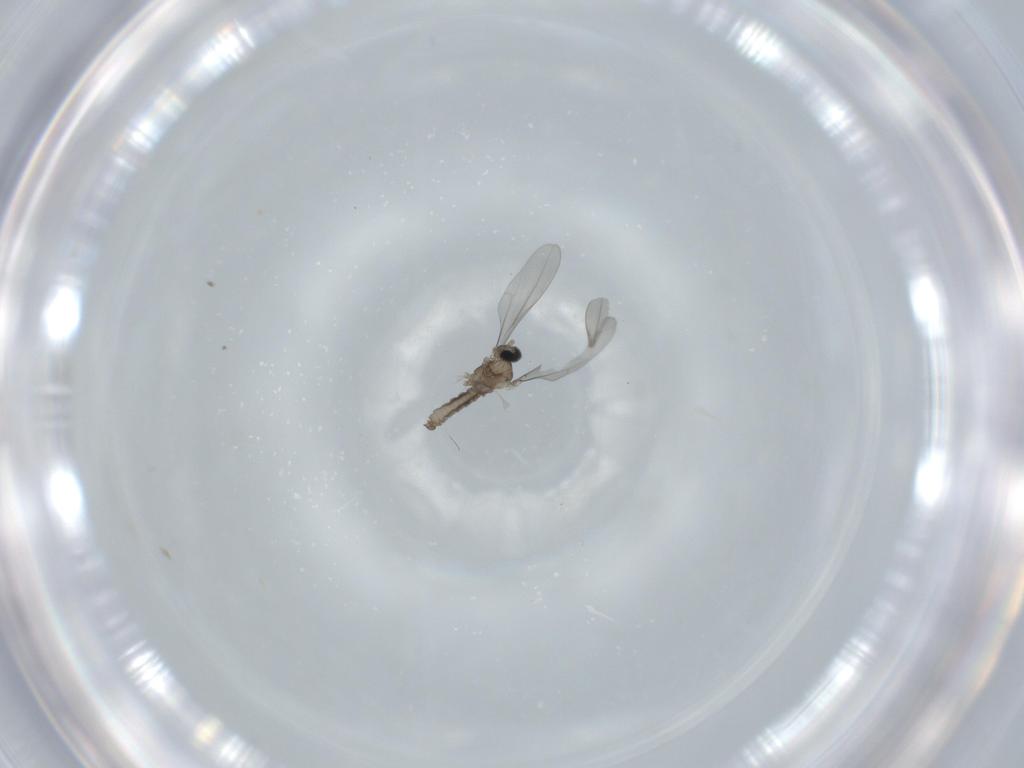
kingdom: Animalia
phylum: Arthropoda
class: Insecta
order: Diptera
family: Cecidomyiidae
